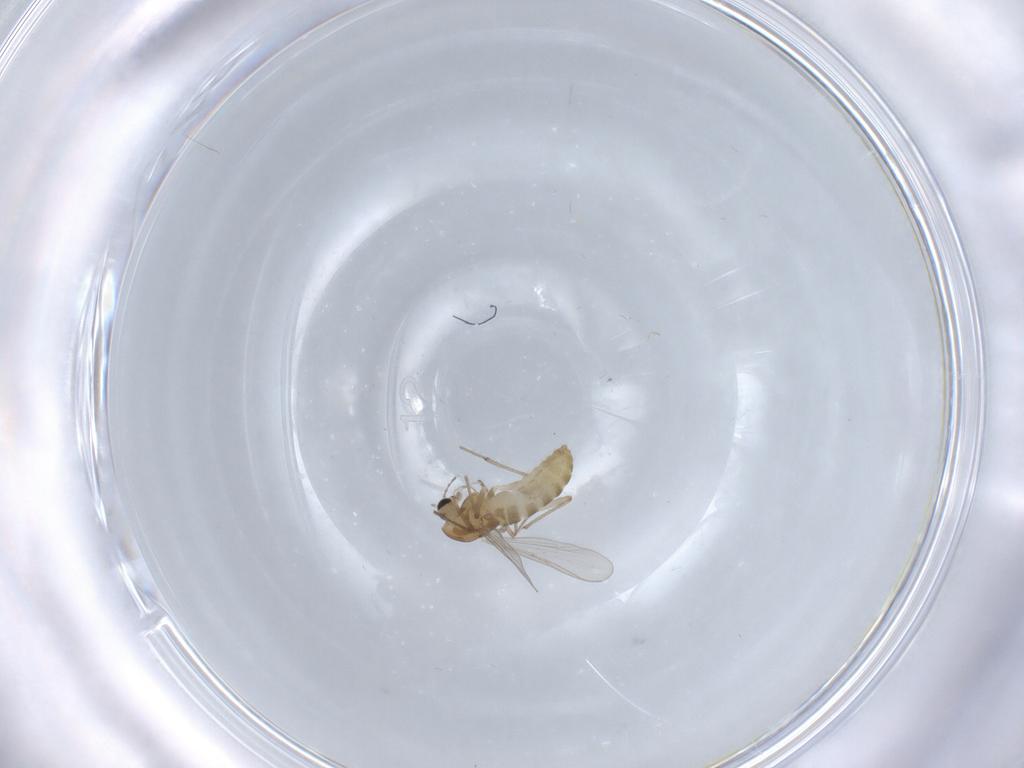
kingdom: Animalia
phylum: Arthropoda
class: Insecta
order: Diptera
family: Chironomidae
